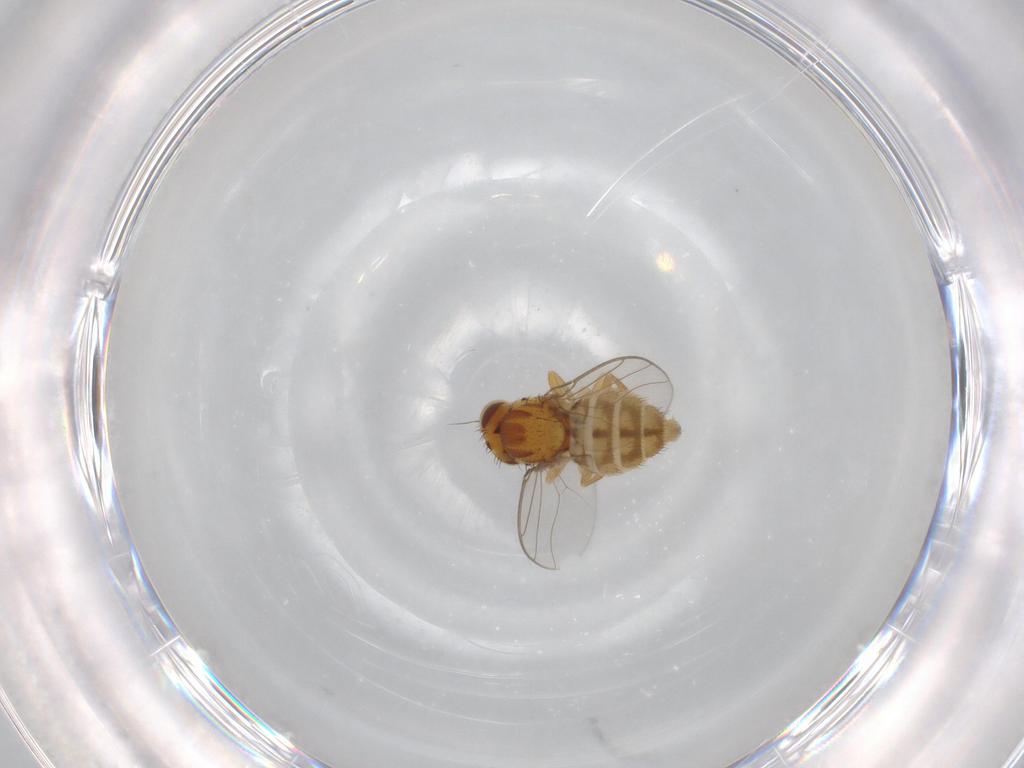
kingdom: Animalia
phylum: Arthropoda
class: Insecta
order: Diptera
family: Chloropidae
